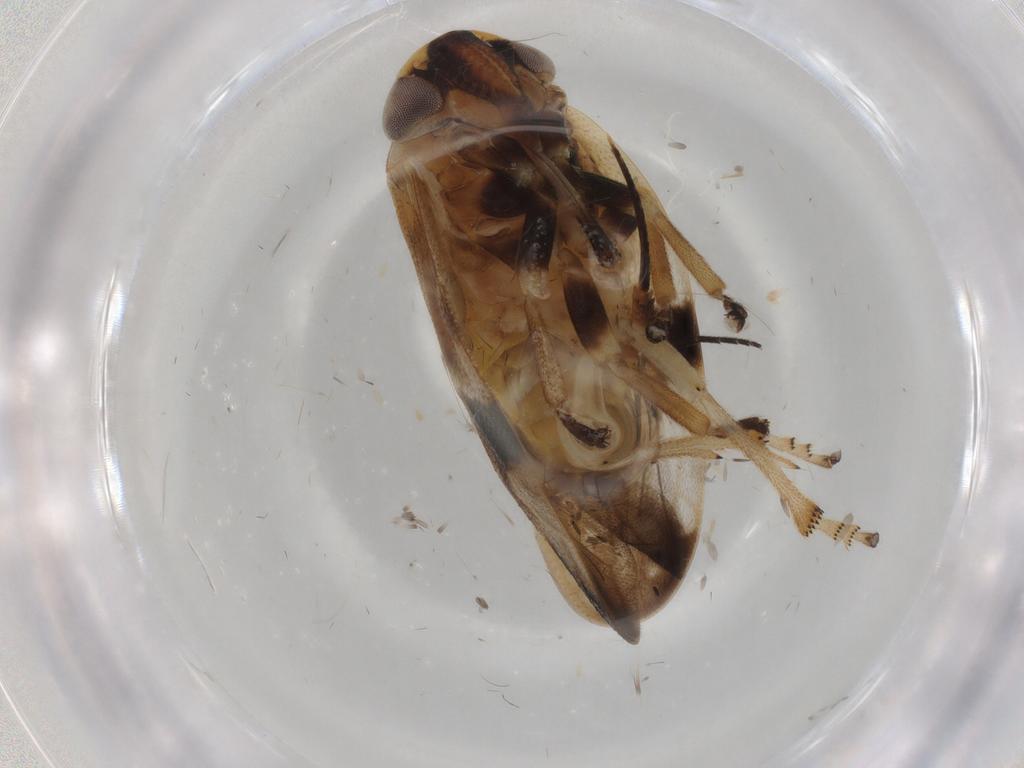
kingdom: Animalia
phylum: Arthropoda
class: Insecta
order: Hemiptera
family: Aphrophoridae
